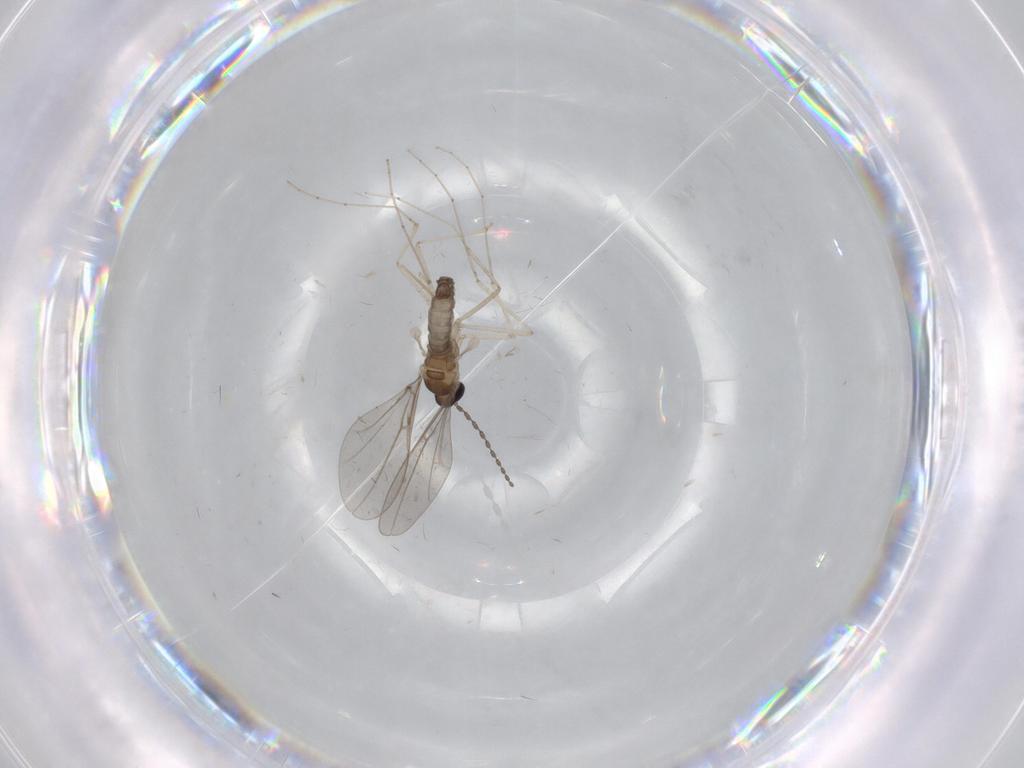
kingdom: Animalia
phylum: Arthropoda
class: Insecta
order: Diptera
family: Cecidomyiidae
